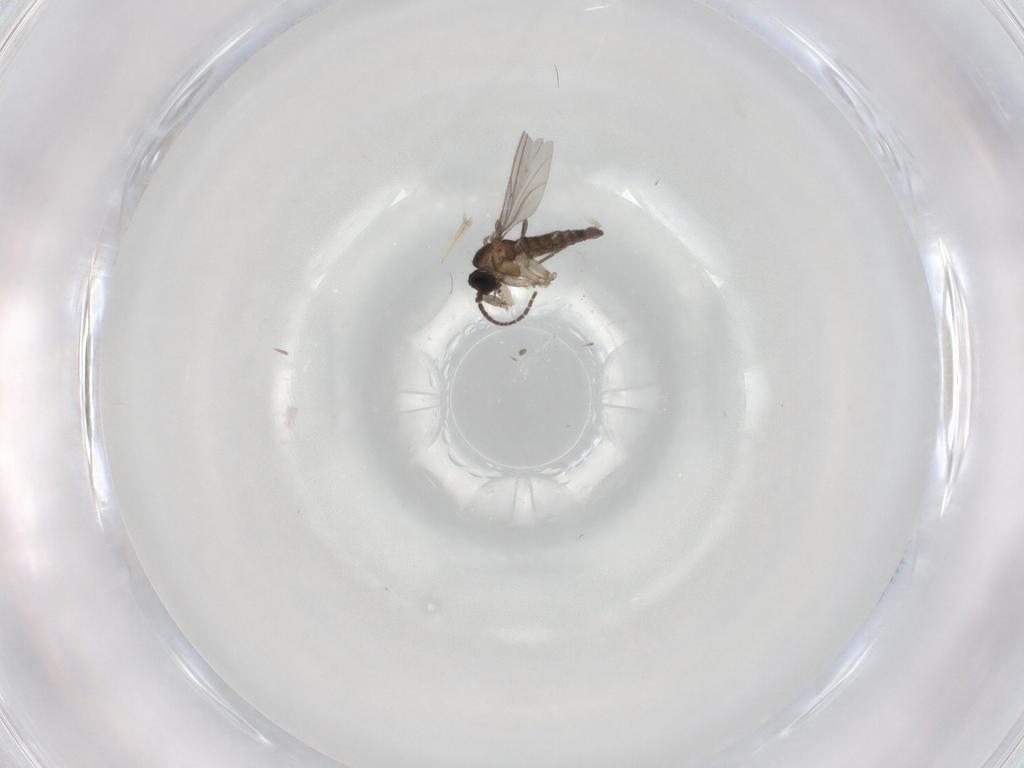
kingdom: Animalia
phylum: Arthropoda
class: Insecta
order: Diptera
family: Sciaridae
